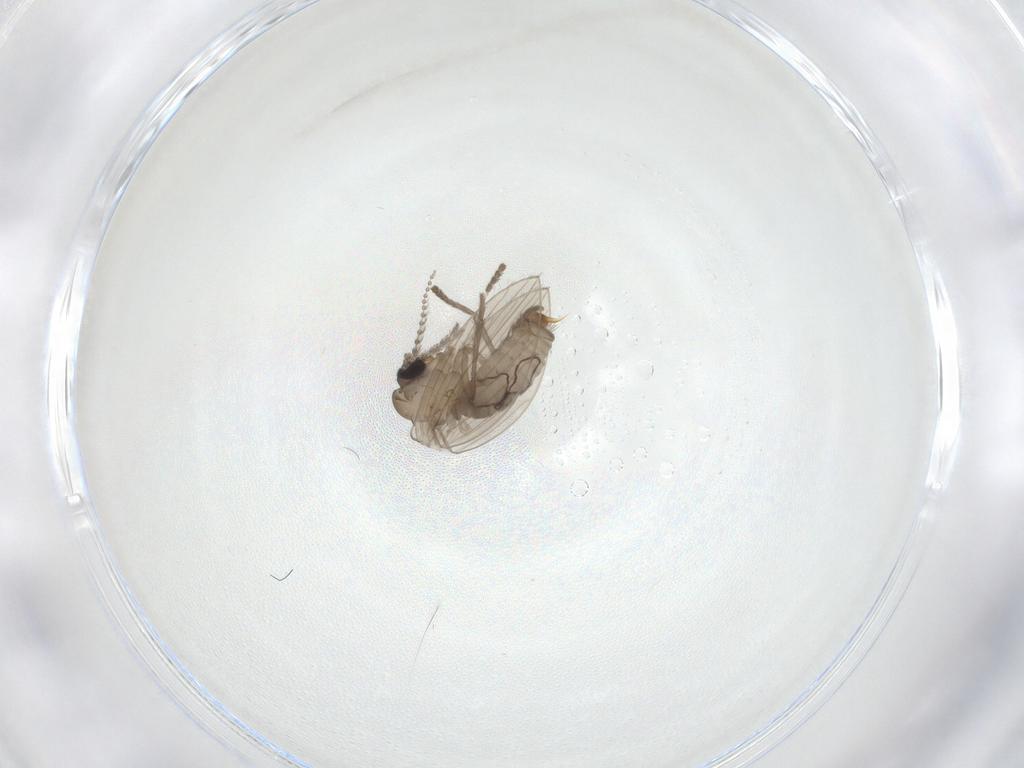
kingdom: Animalia
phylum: Arthropoda
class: Insecta
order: Diptera
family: Psychodidae
